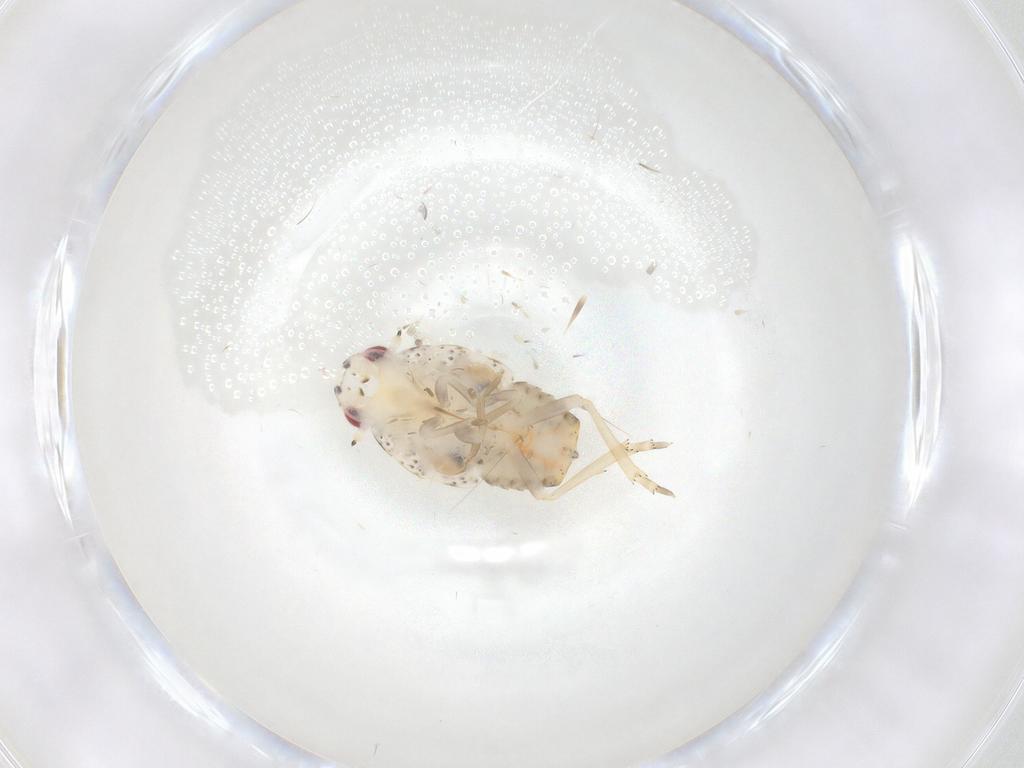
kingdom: Animalia
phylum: Arthropoda
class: Insecta
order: Hemiptera
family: Flatidae
